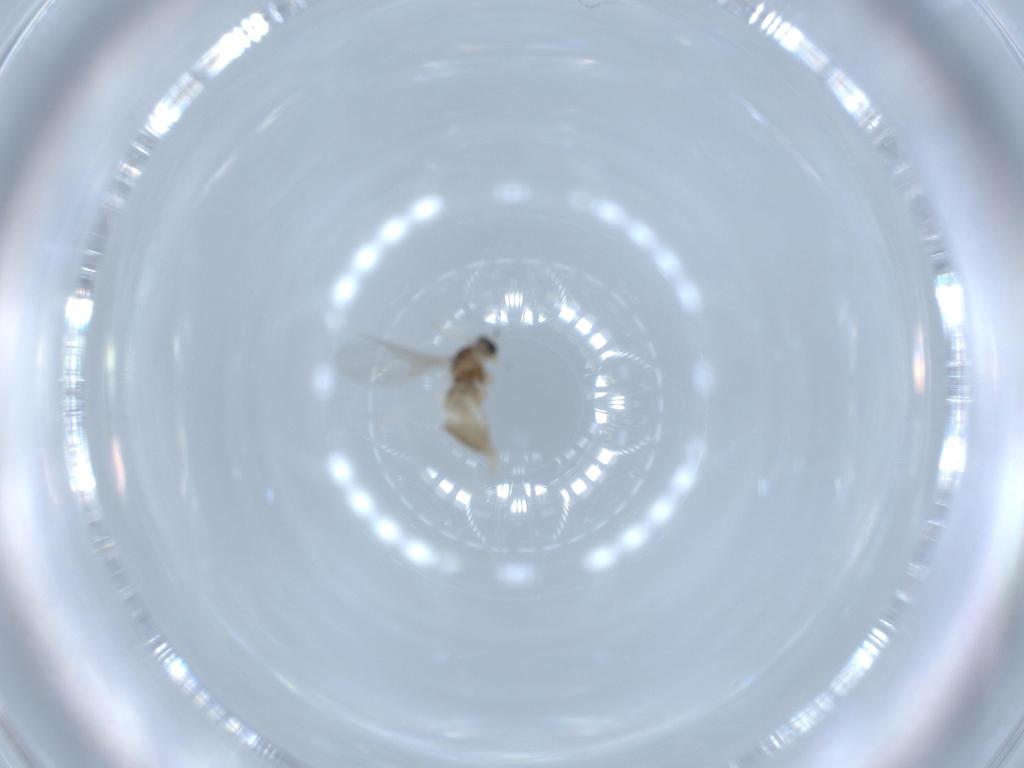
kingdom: Animalia
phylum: Arthropoda
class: Insecta
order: Diptera
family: Cecidomyiidae
